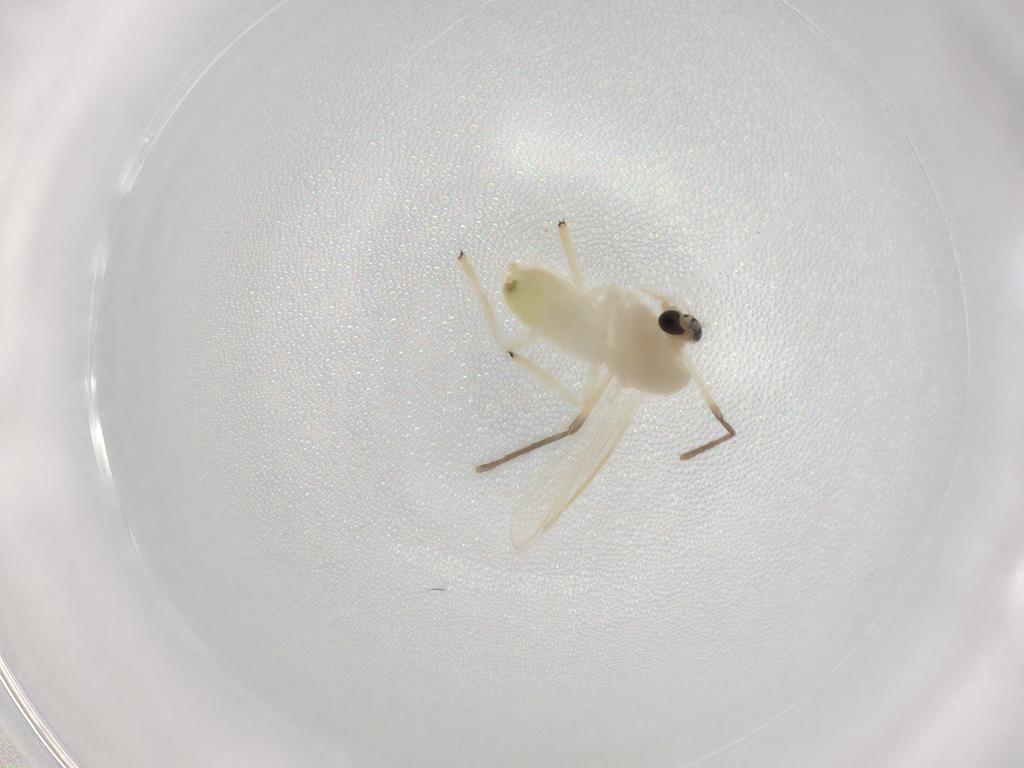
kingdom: Animalia
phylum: Arthropoda
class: Insecta
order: Diptera
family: Chironomidae
